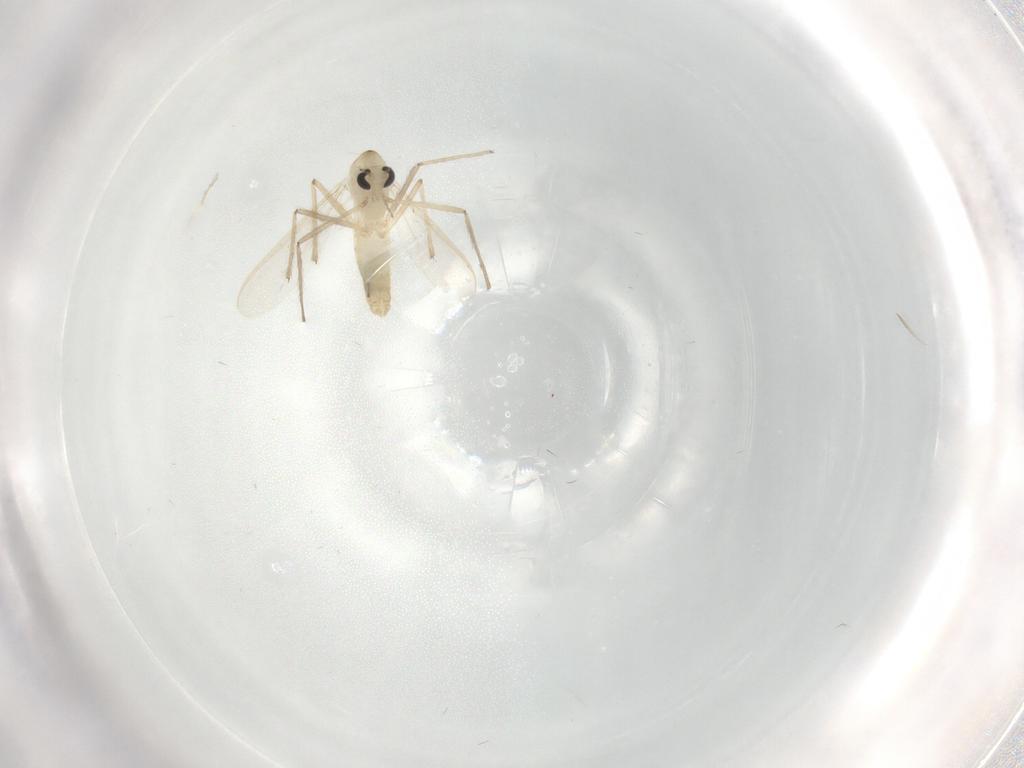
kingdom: Animalia
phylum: Arthropoda
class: Insecta
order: Diptera
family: Chironomidae
